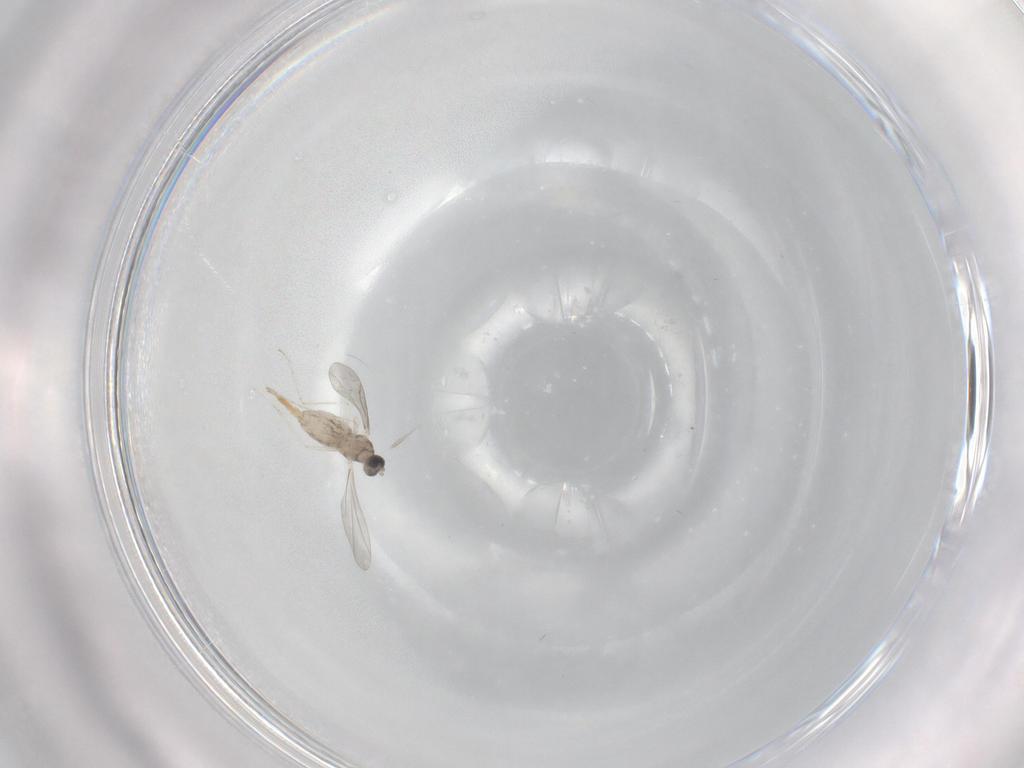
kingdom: Animalia
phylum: Arthropoda
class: Insecta
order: Diptera
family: Cecidomyiidae
